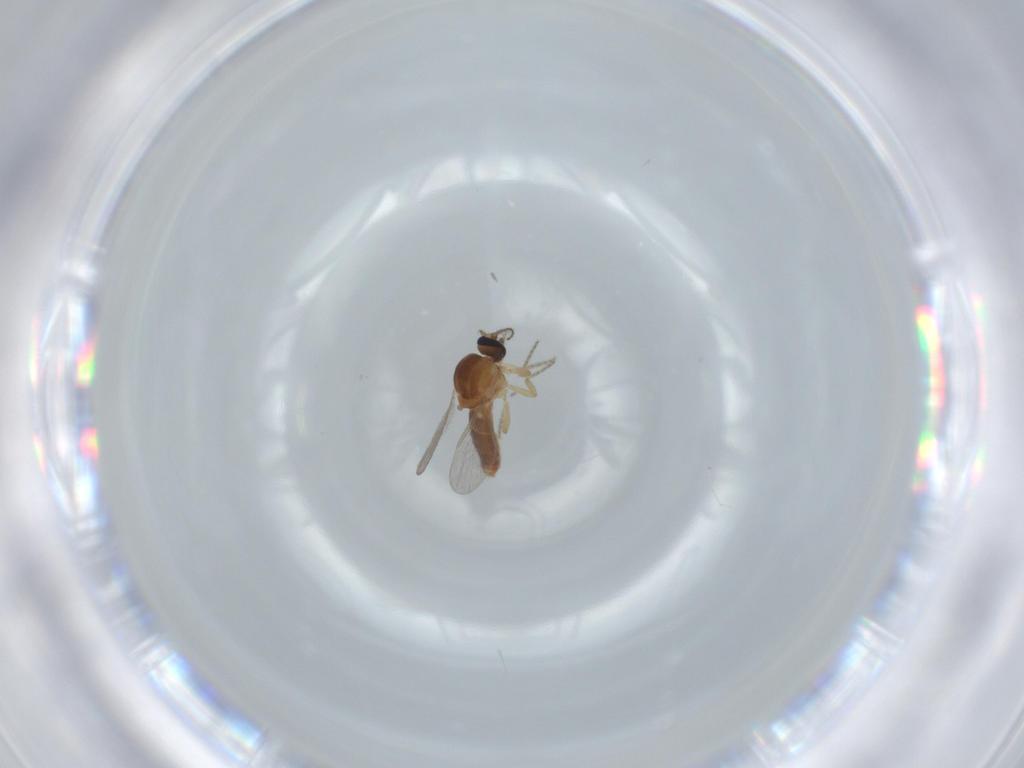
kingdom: Animalia
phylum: Arthropoda
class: Insecta
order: Diptera
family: Ceratopogonidae
